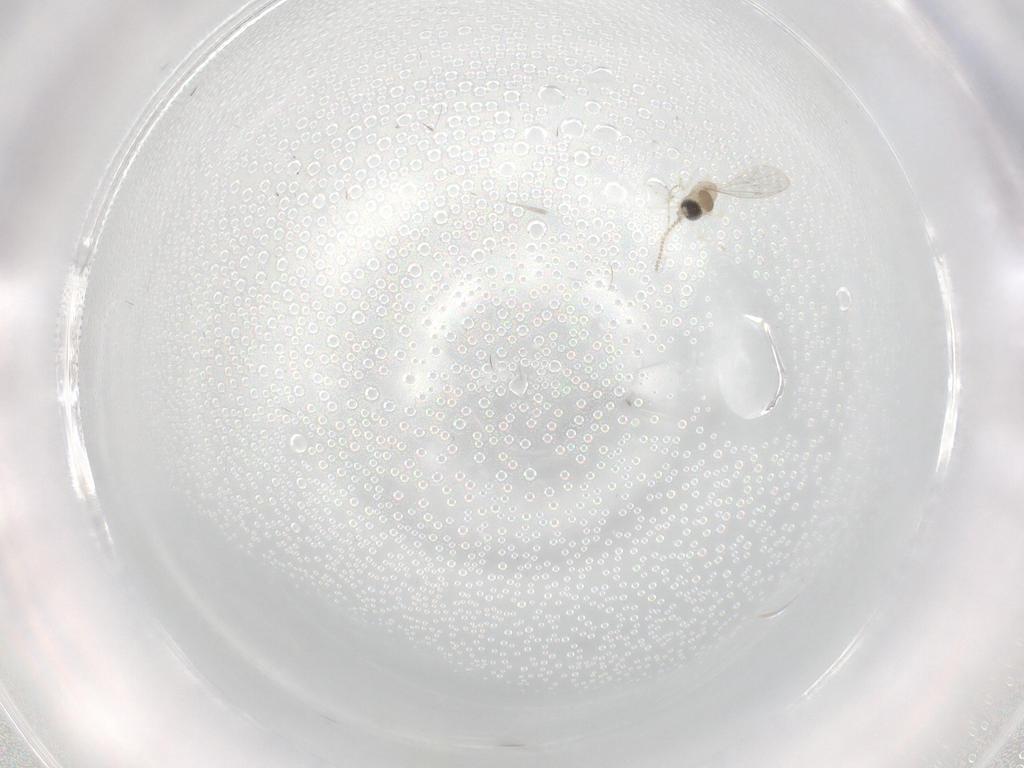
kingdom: Animalia
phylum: Arthropoda
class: Insecta
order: Diptera
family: Cecidomyiidae
